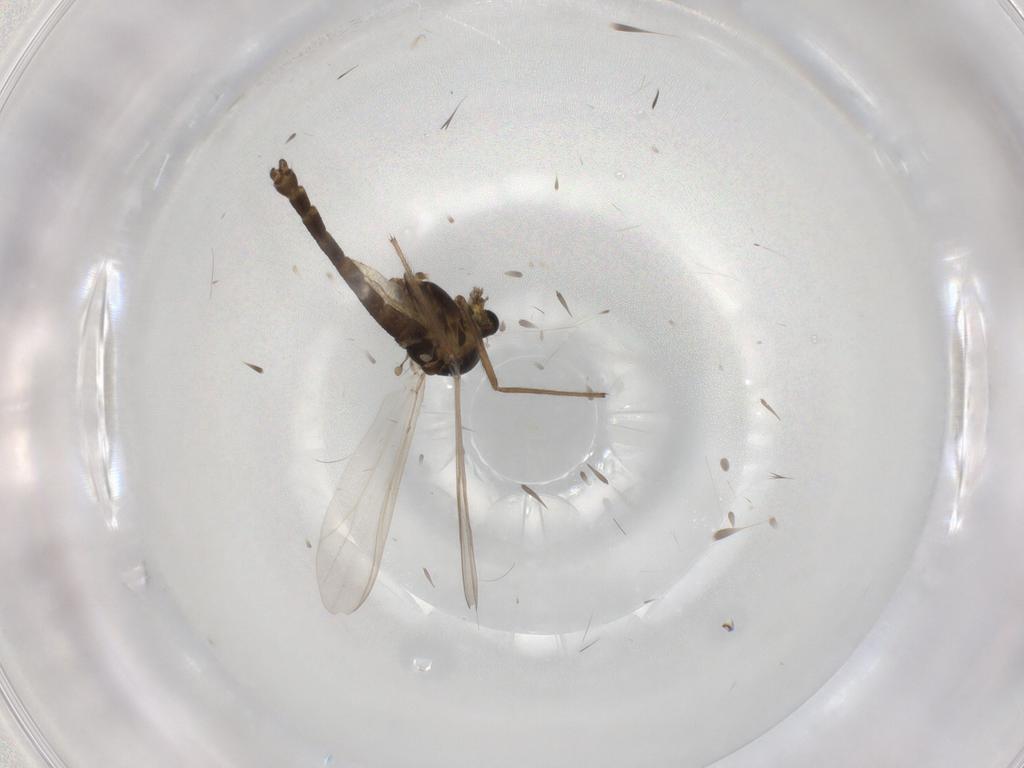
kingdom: Animalia
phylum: Arthropoda
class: Insecta
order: Diptera
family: Chironomidae
